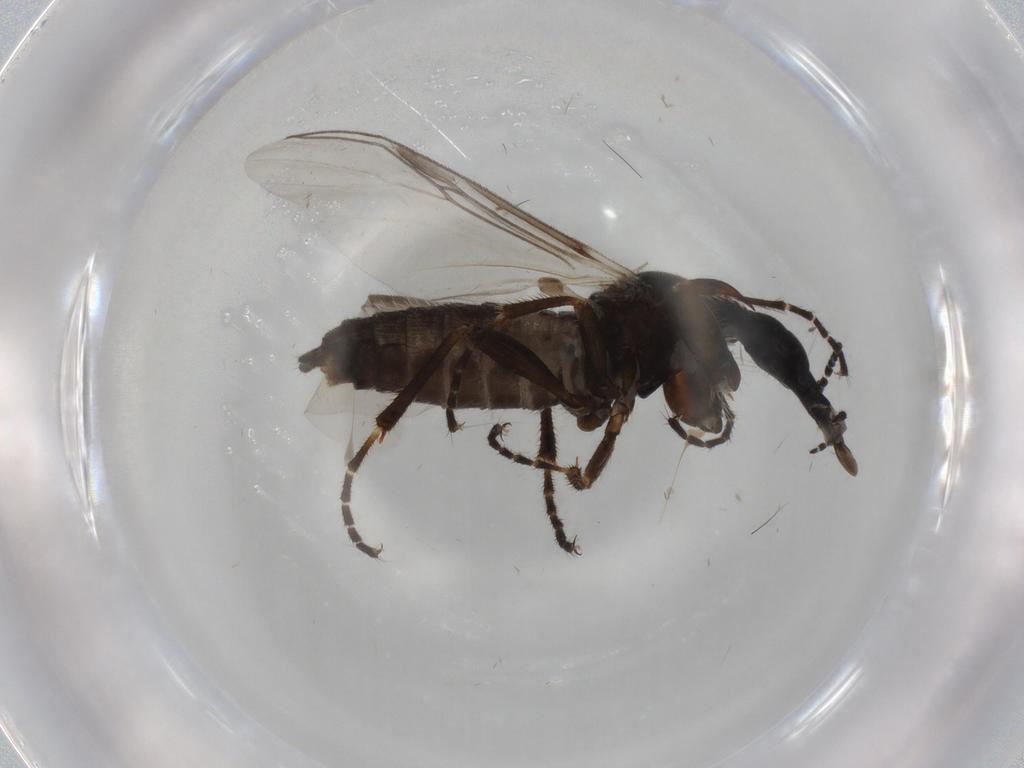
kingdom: Animalia
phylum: Arthropoda
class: Insecta
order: Diptera
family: Bibionidae
